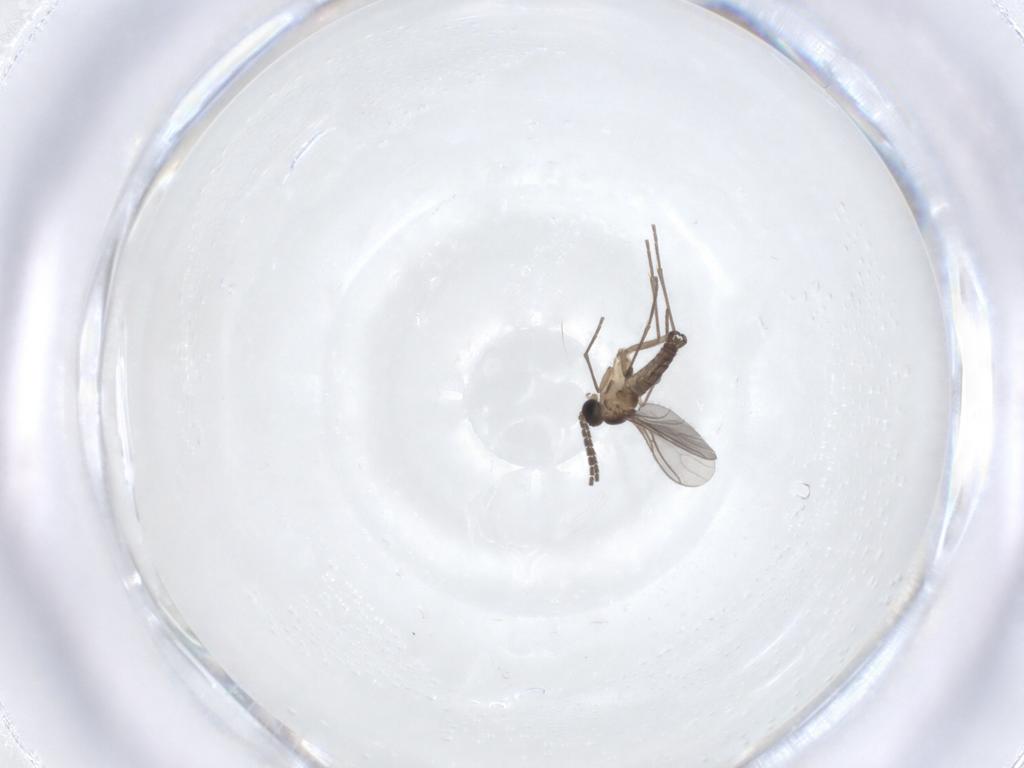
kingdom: Animalia
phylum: Arthropoda
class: Insecta
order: Diptera
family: Sciaridae
